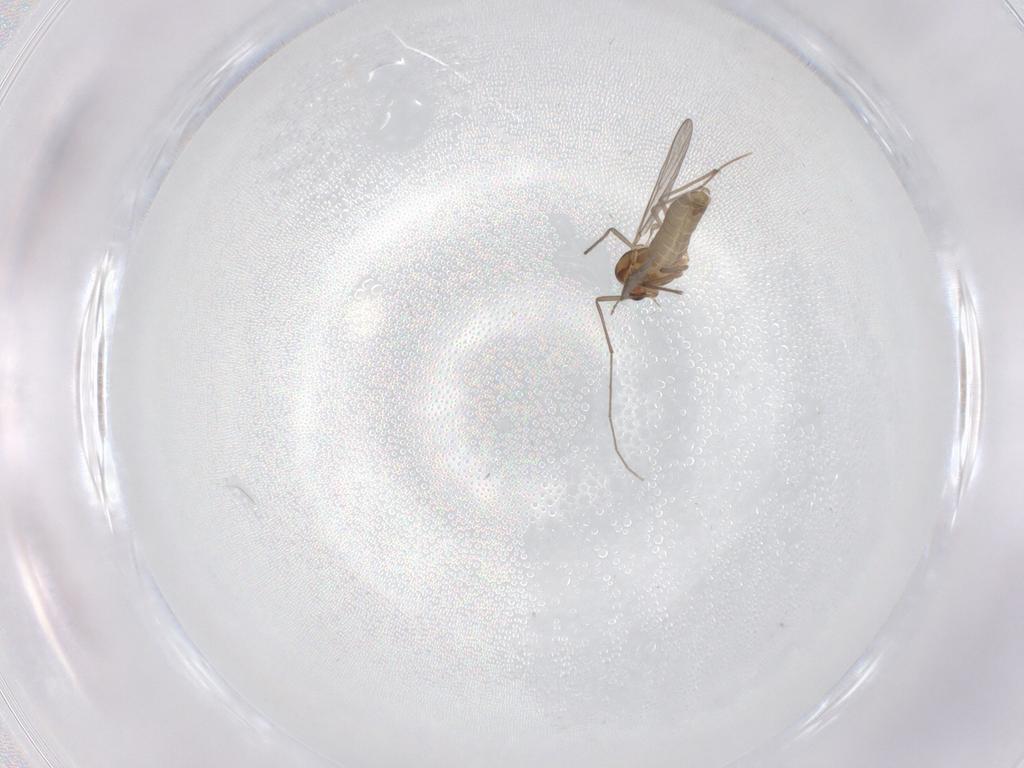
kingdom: Animalia
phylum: Arthropoda
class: Insecta
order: Diptera
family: Chironomidae
